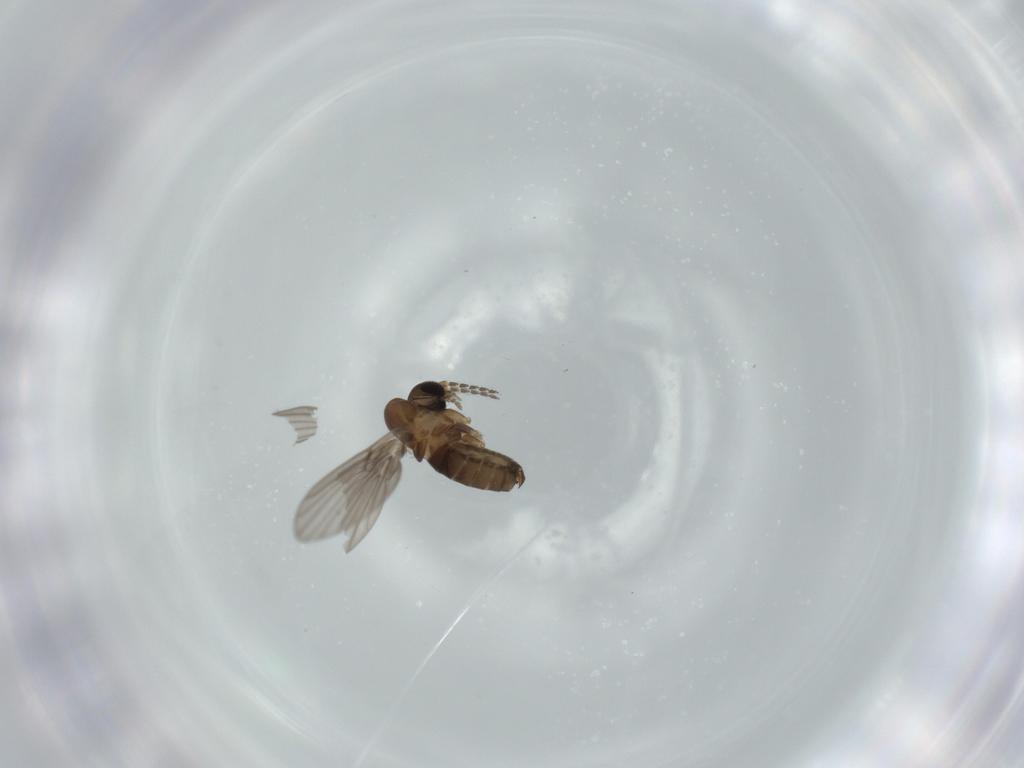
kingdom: Animalia
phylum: Arthropoda
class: Insecta
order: Diptera
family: Psychodidae
